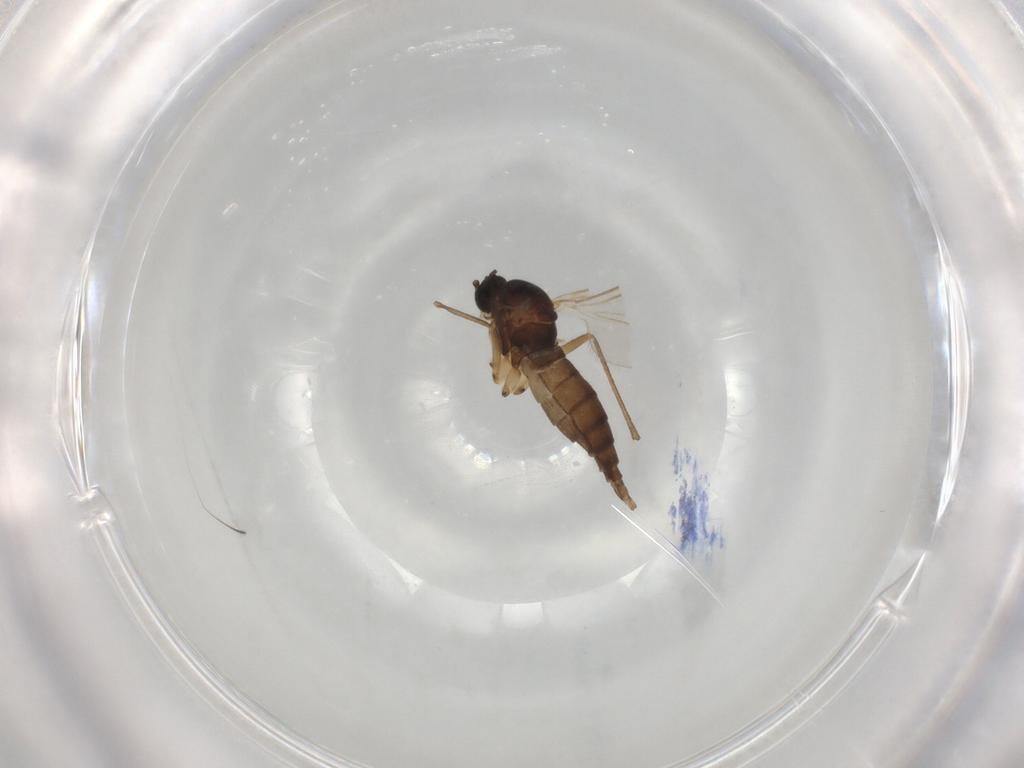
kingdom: Animalia
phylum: Arthropoda
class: Insecta
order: Diptera
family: Sciaridae
